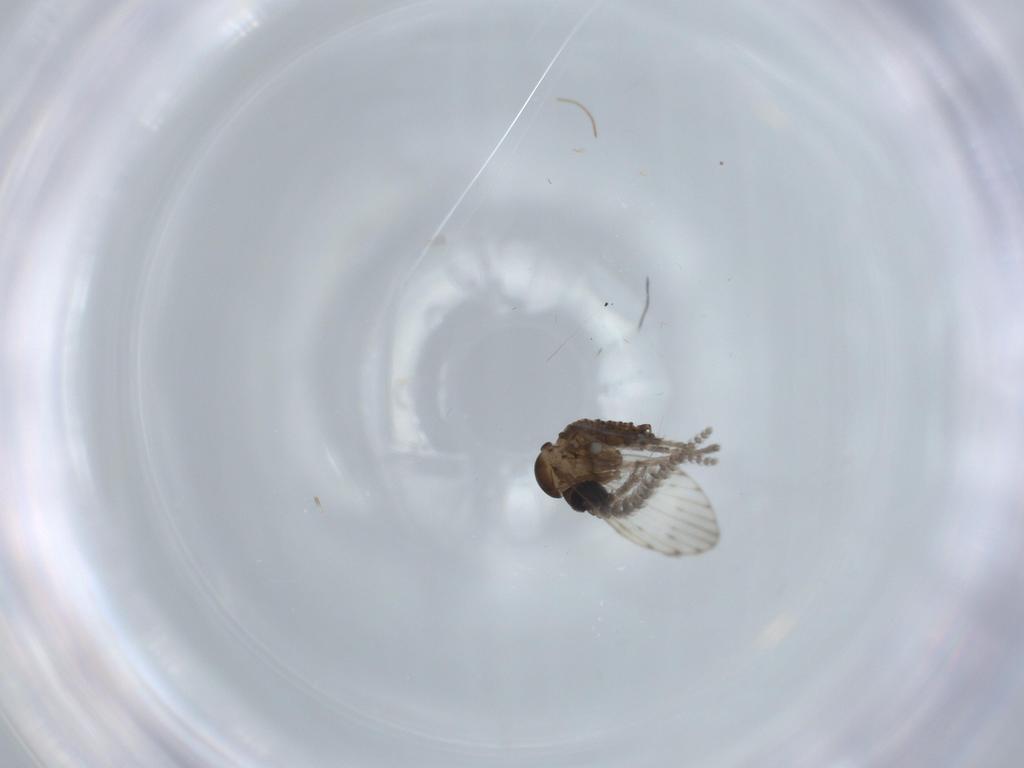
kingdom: Animalia
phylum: Arthropoda
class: Insecta
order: Diptera
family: Psychodidae
